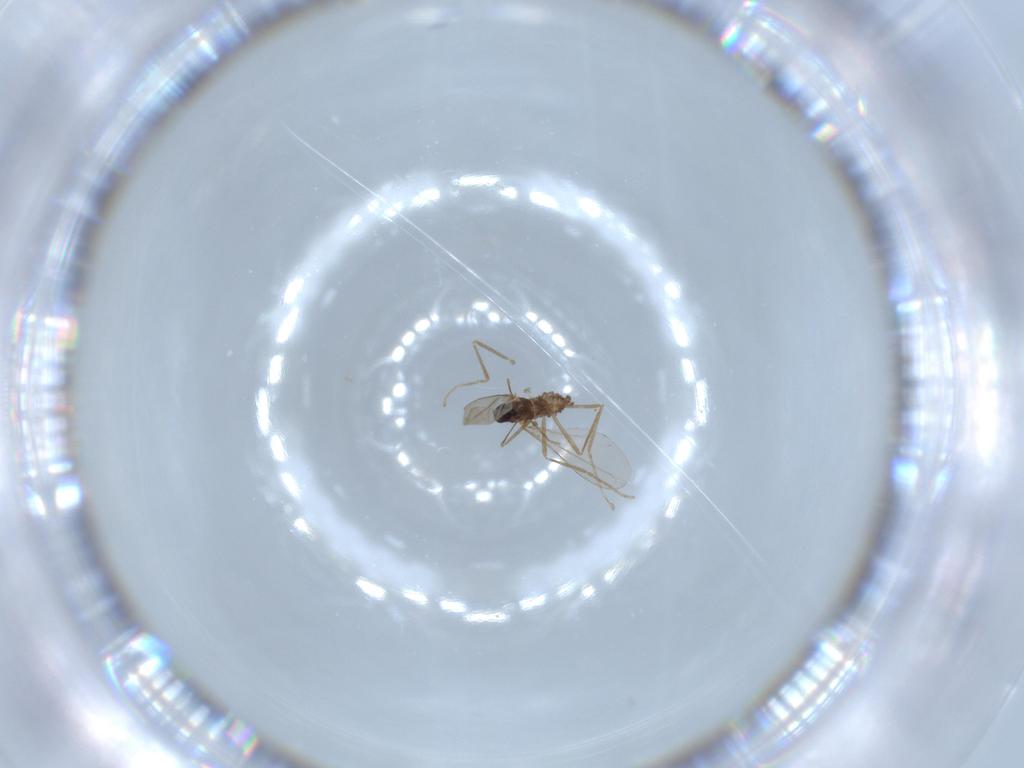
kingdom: Animalia
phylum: Arthropoda
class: Insecta
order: Diptera
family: Cecidomyiidae
